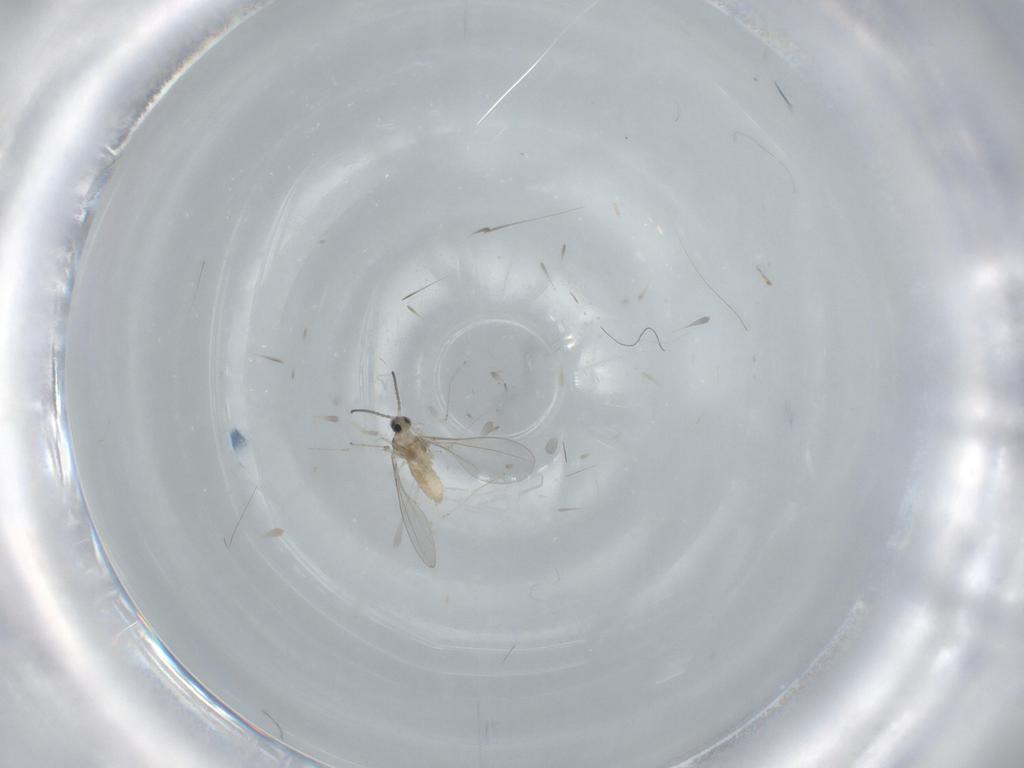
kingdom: Animalia
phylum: Arthropoda
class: Insecta
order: Diptera
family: Sciaridae
